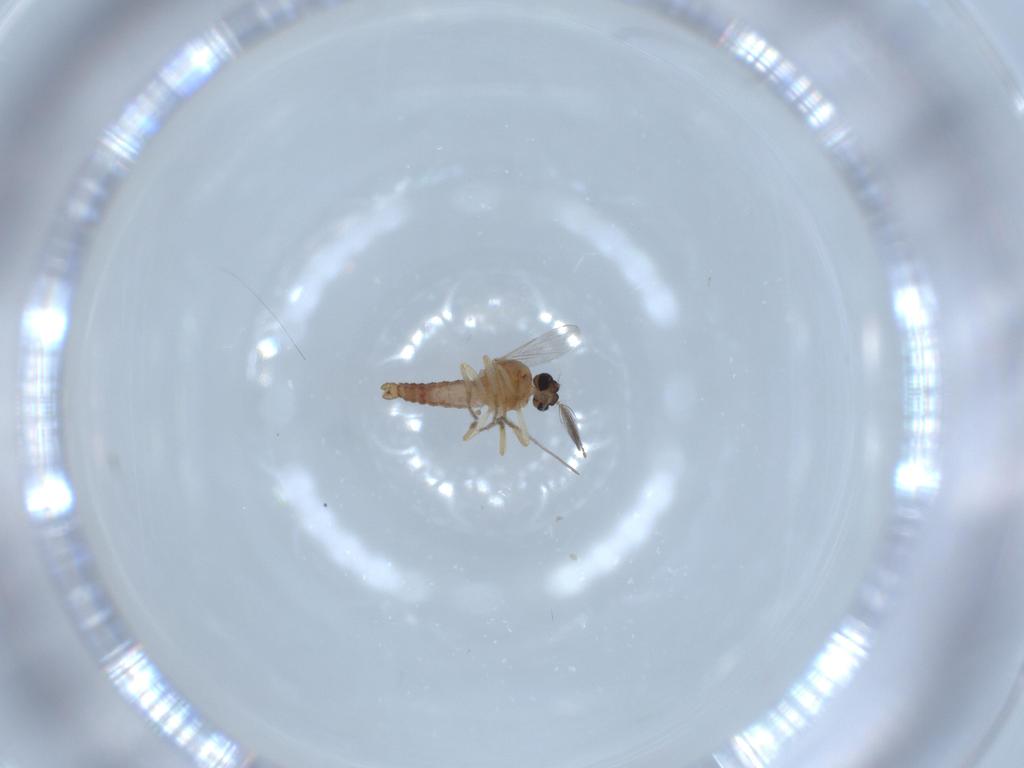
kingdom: Animalia
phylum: Arthropoda
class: Insecta
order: Diptera
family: Ceratopogonidae
